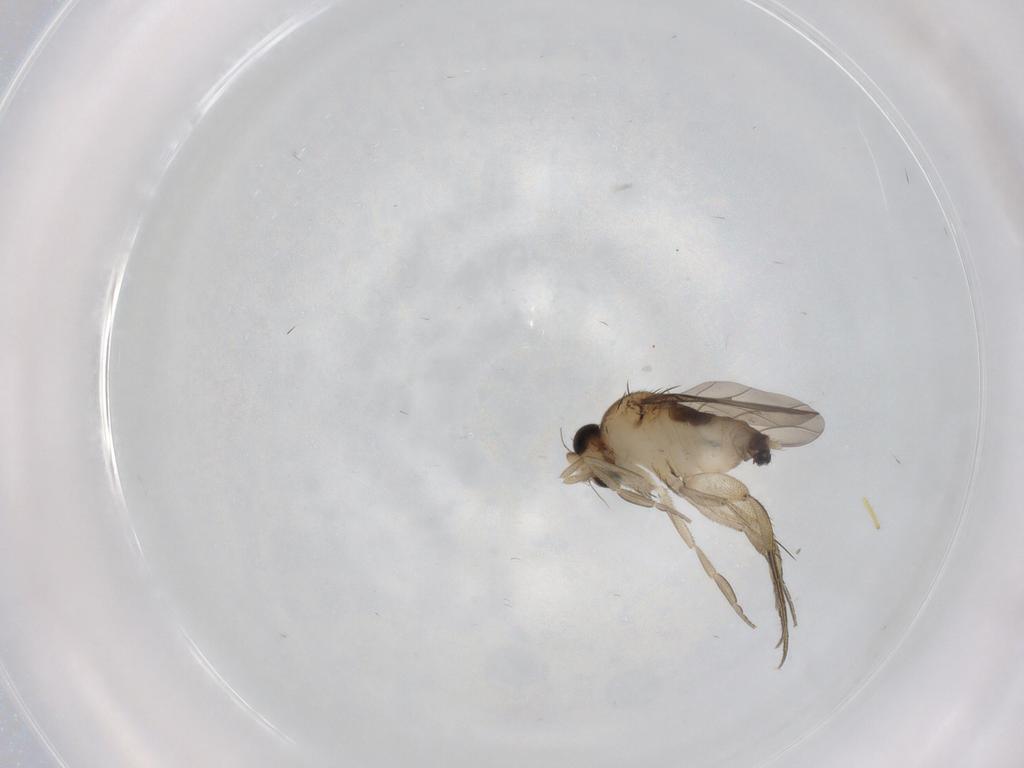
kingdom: Animalia
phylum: Arthropoda
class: Insecta
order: Diptera
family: Phoridae
